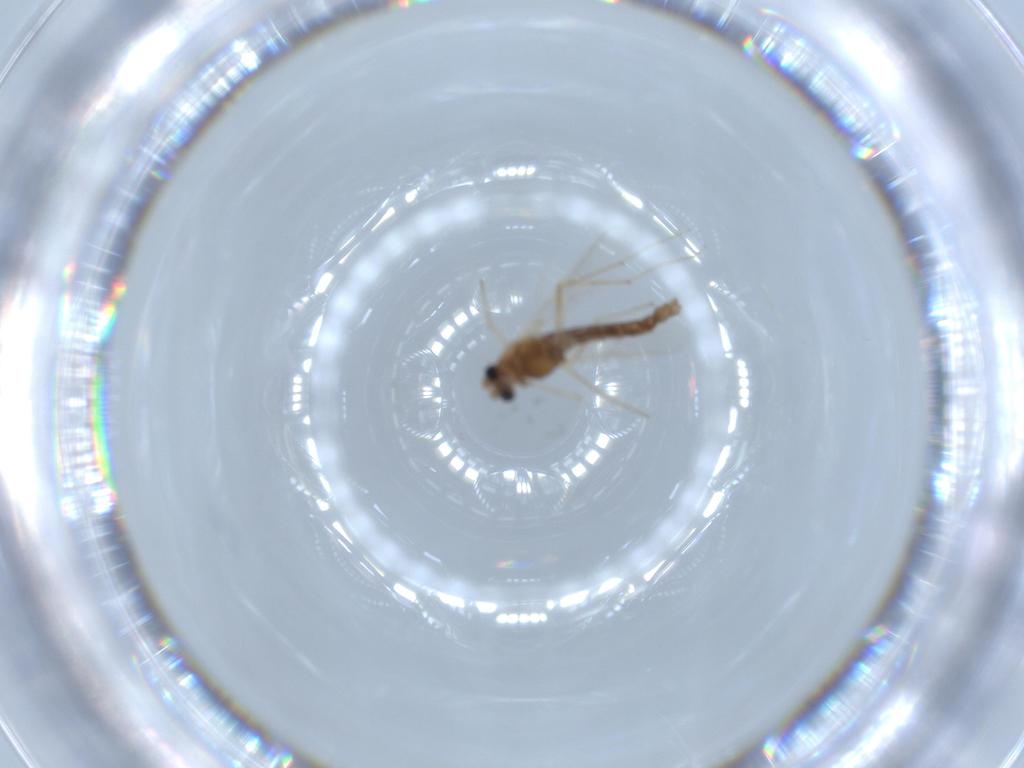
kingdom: Animalia
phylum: Arthropoda
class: Insecta
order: Diptera
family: Chironomidae
